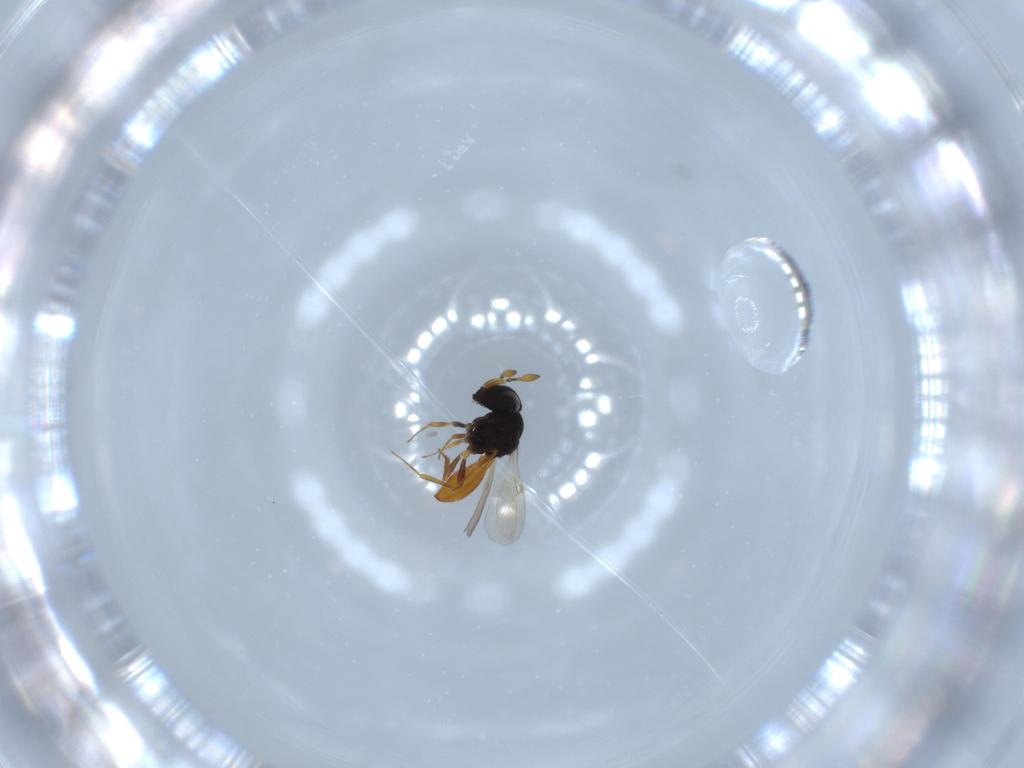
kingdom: Animalia
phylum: Arthropoda
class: Insecta
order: Hymenoptera
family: Scelionidae
